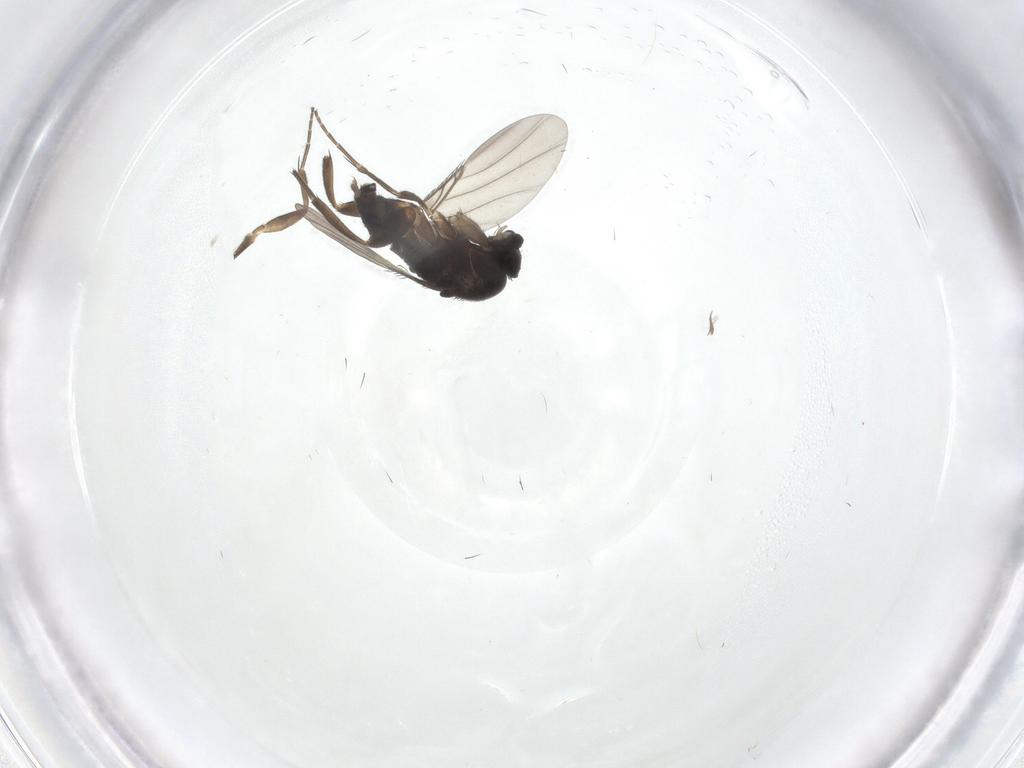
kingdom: Animalia
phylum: Arthropoda
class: Insecta
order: Diptera
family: Phoridae
